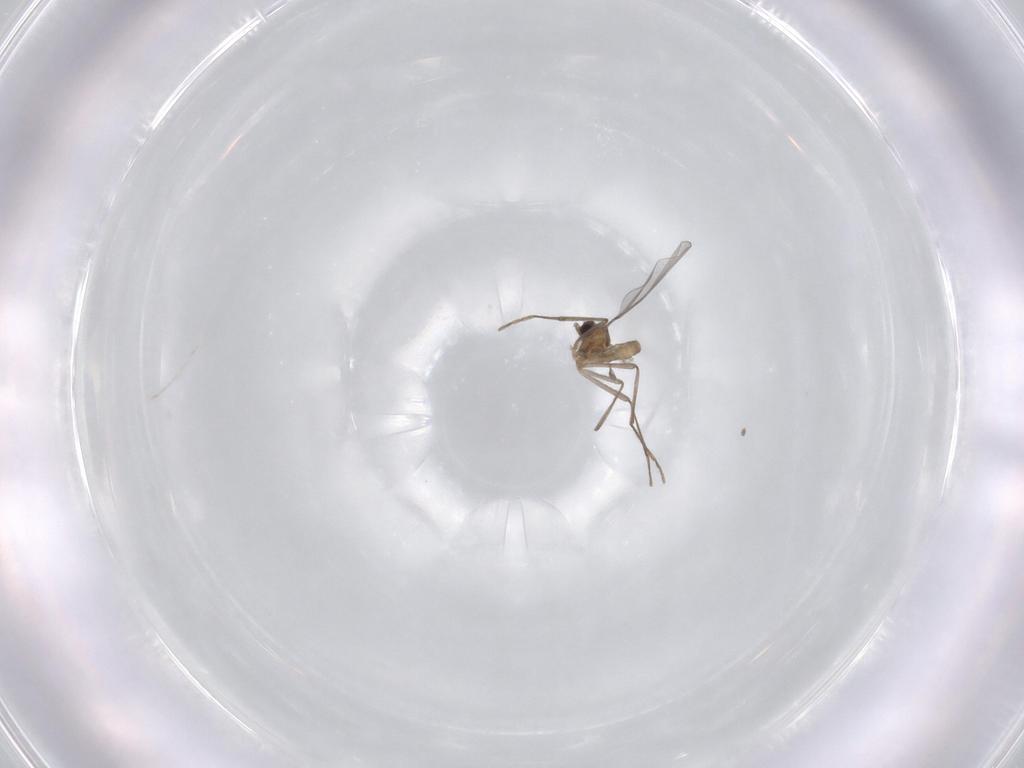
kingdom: Animalia
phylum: Arthropoda
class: Insecta
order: Diptera
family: Cecidomyiidae
